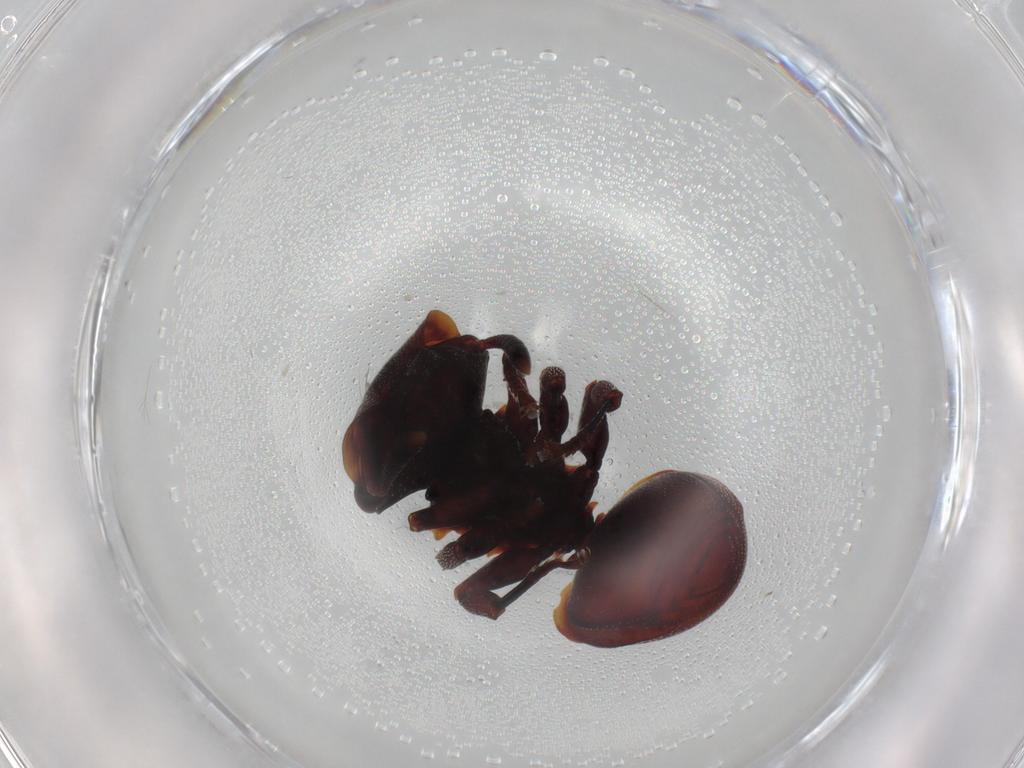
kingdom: Animalia
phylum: Arthropoda
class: Insecta
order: Hymenoptera
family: Formicidae
